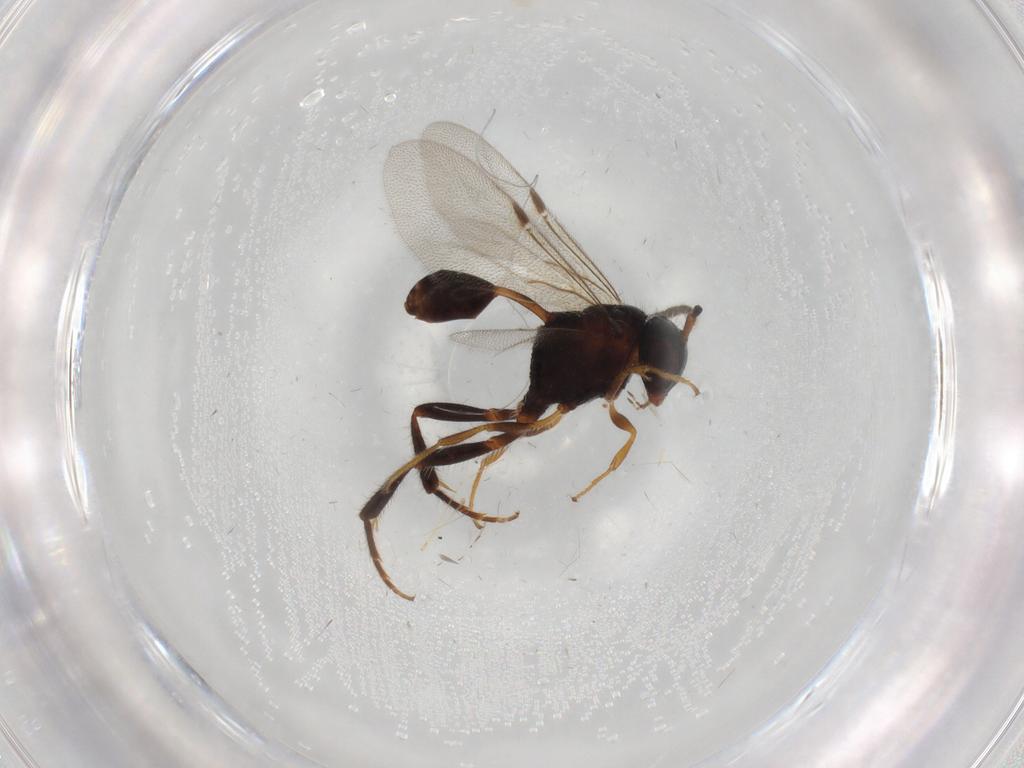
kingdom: Animalia
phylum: Arthropoda
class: Insecta
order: Hymenoptera
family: Evaniidae
